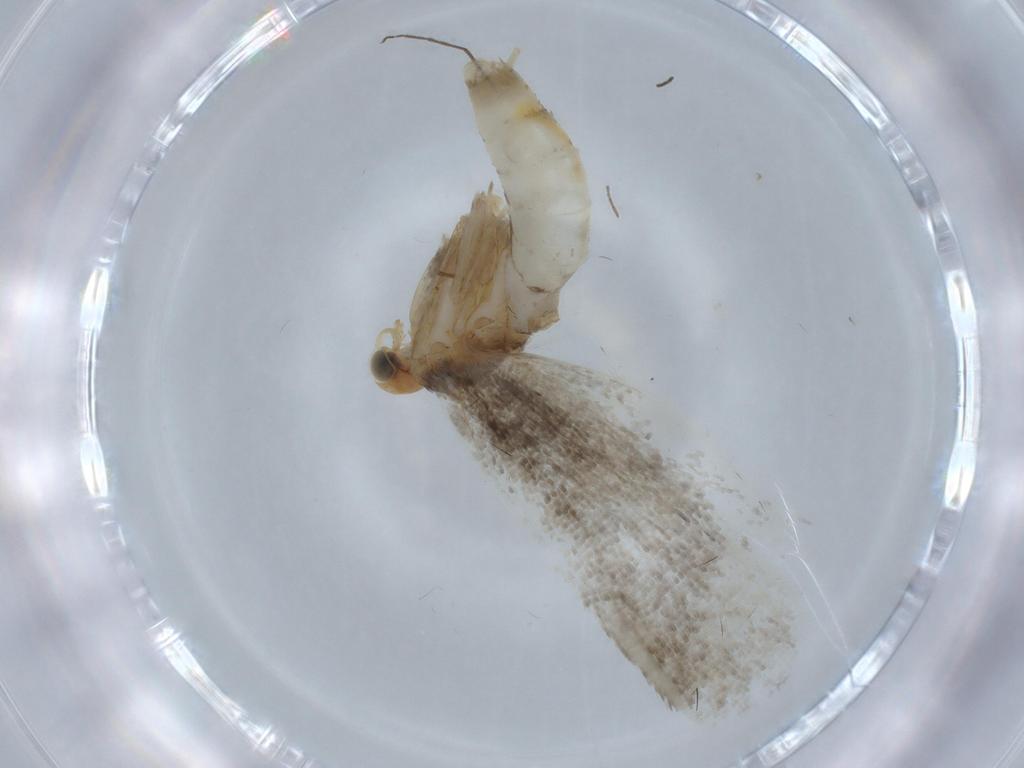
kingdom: Animalia
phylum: Arthropoda
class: Insecta
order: Lepidoptera
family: Argyresthiidae
